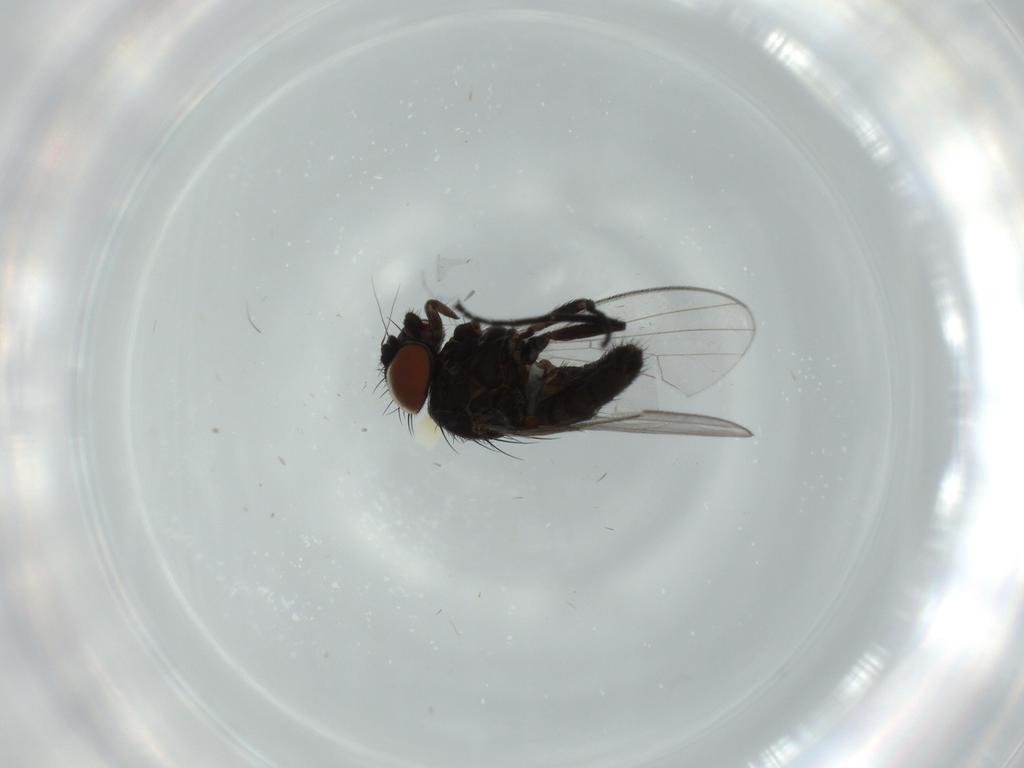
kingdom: Animalia
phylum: Arthropoda
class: Insecta
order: Diptera
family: Milichiidae
